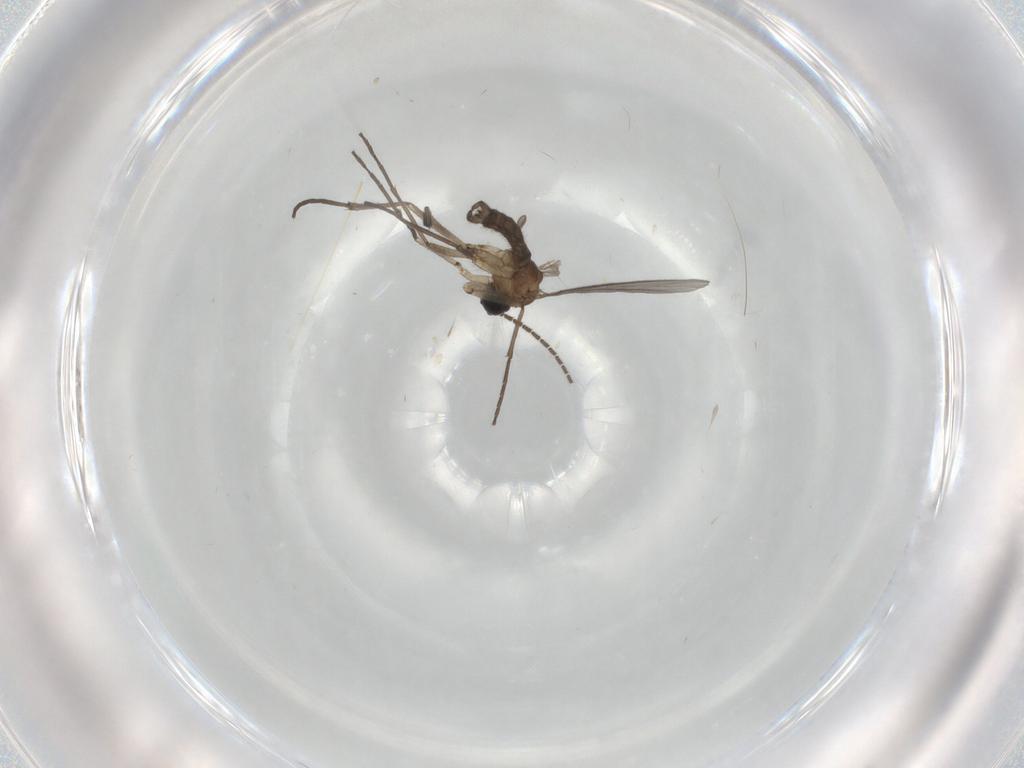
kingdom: Animalia
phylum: Arthropoda
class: Insecta
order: Diptera
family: Sciaridae
